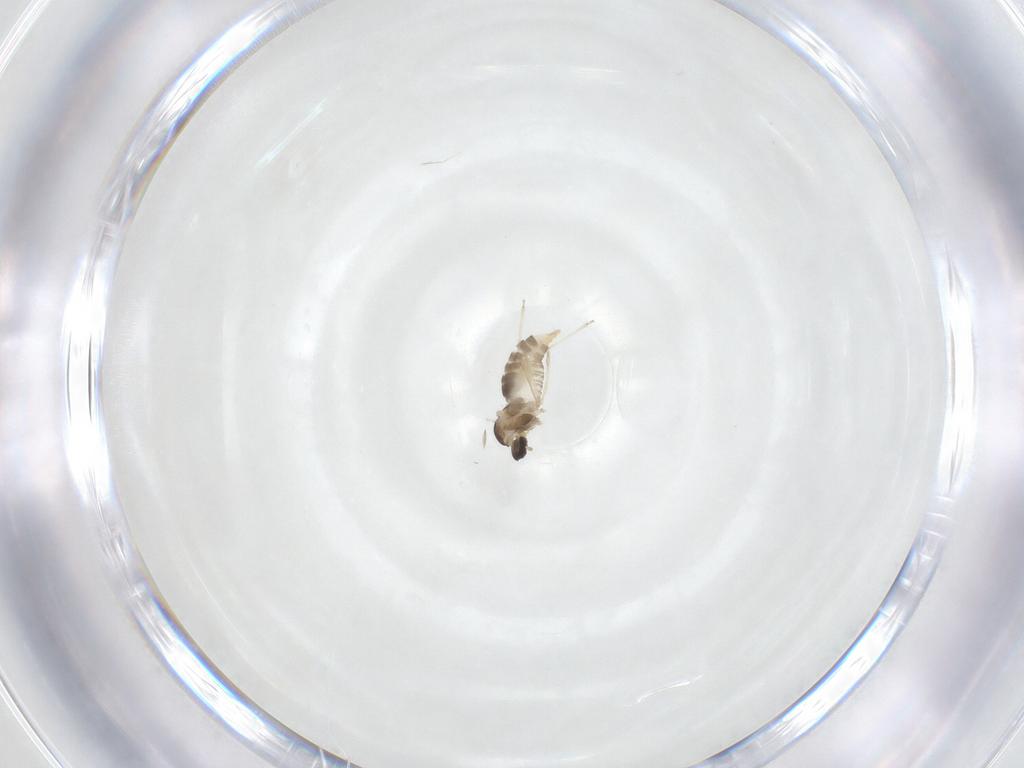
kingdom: Animalia
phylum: Arthropoda
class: Insecta
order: Diptera
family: Cecidomyiidae
